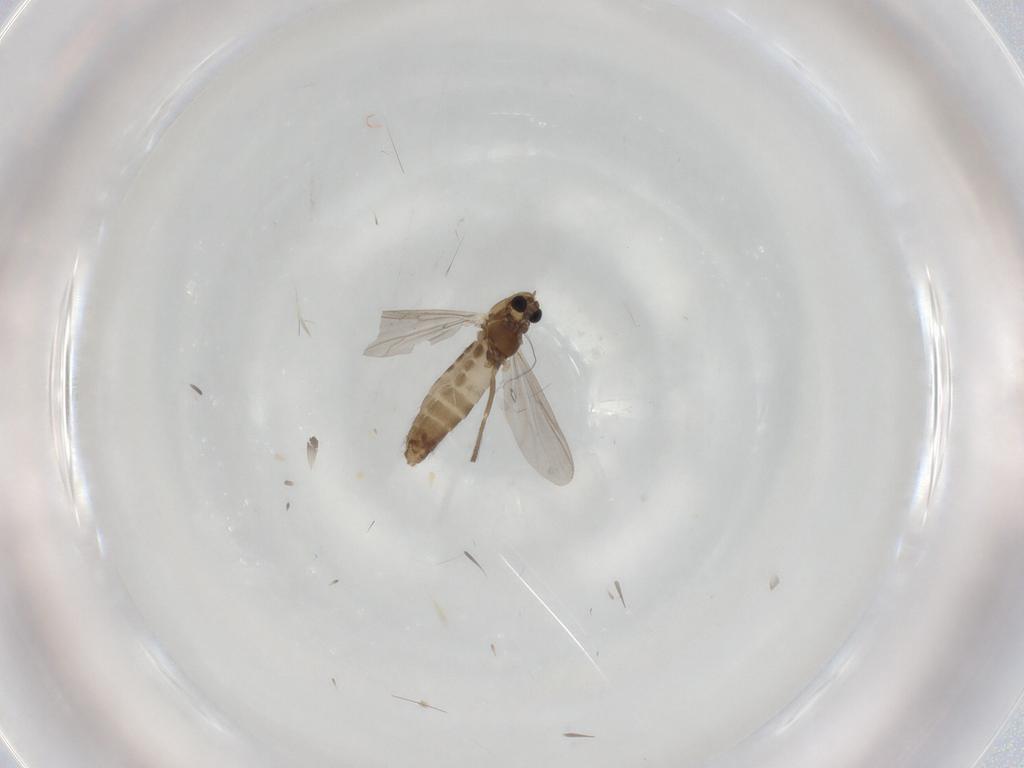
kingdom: Animalia
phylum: Arthropoda
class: Insecta
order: Diptera
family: Chironomidae
